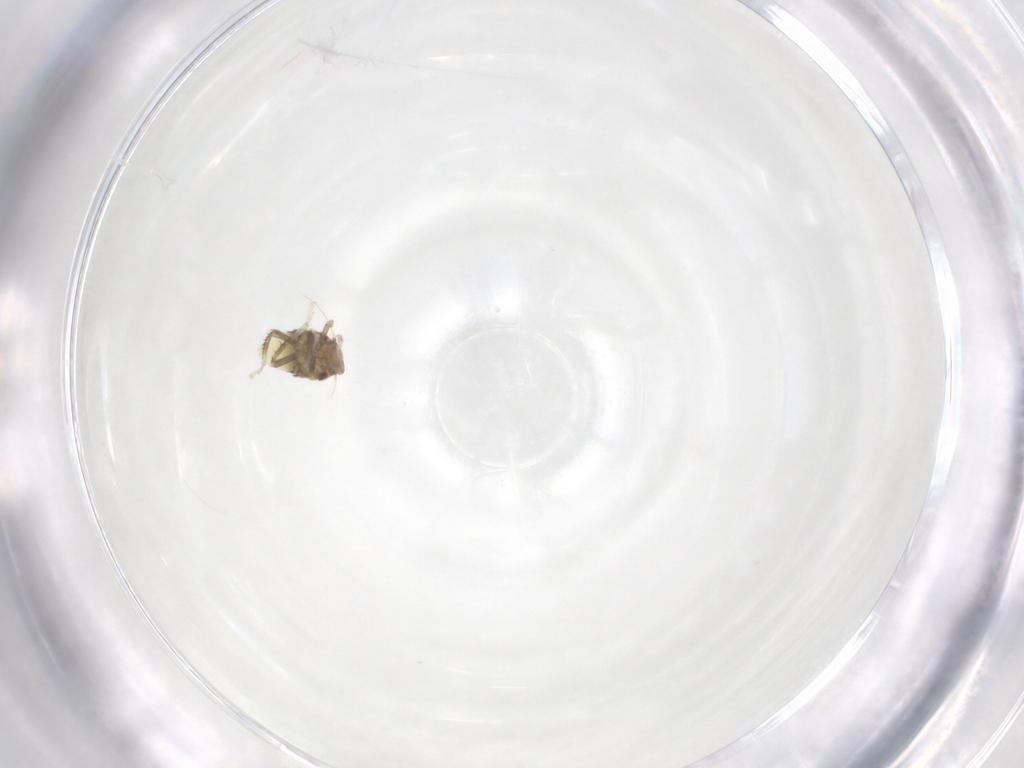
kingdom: Animalia
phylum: Arthropoda
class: Insecta
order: Hemiptera
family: Cicadellidae
